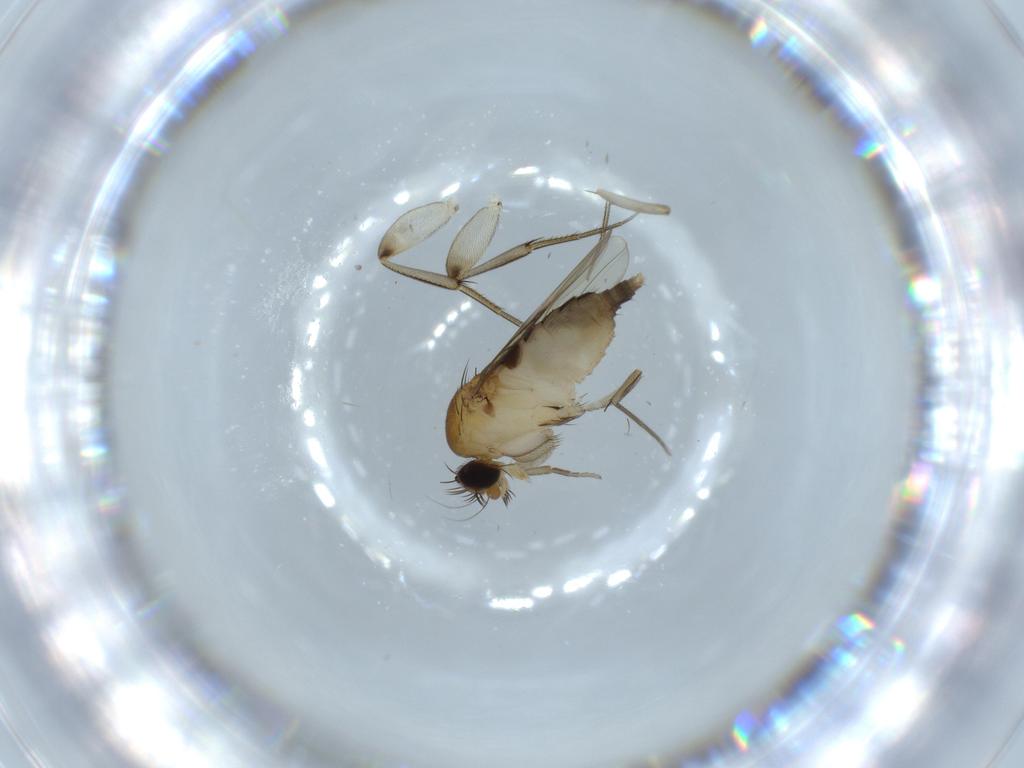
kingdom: Animalia
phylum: Arthropoda
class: Insecta
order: Diptera
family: Phoridae
